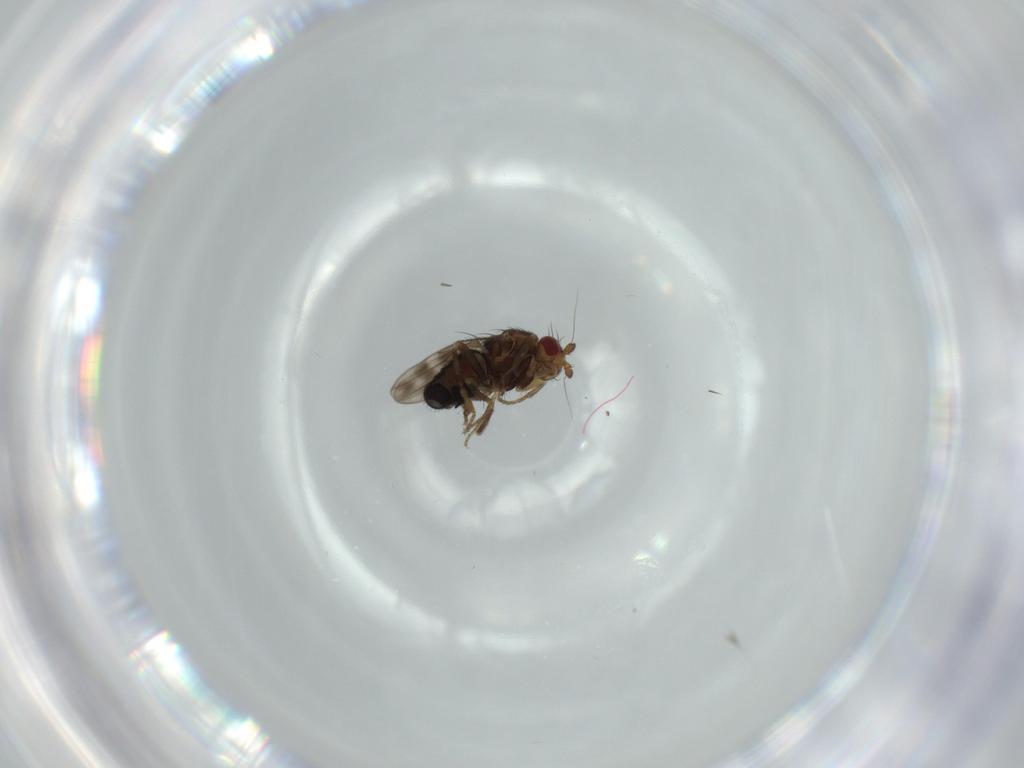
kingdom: Animalia
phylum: Arthropoda
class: Insecta
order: Diptera
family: Sphaeroceridae
